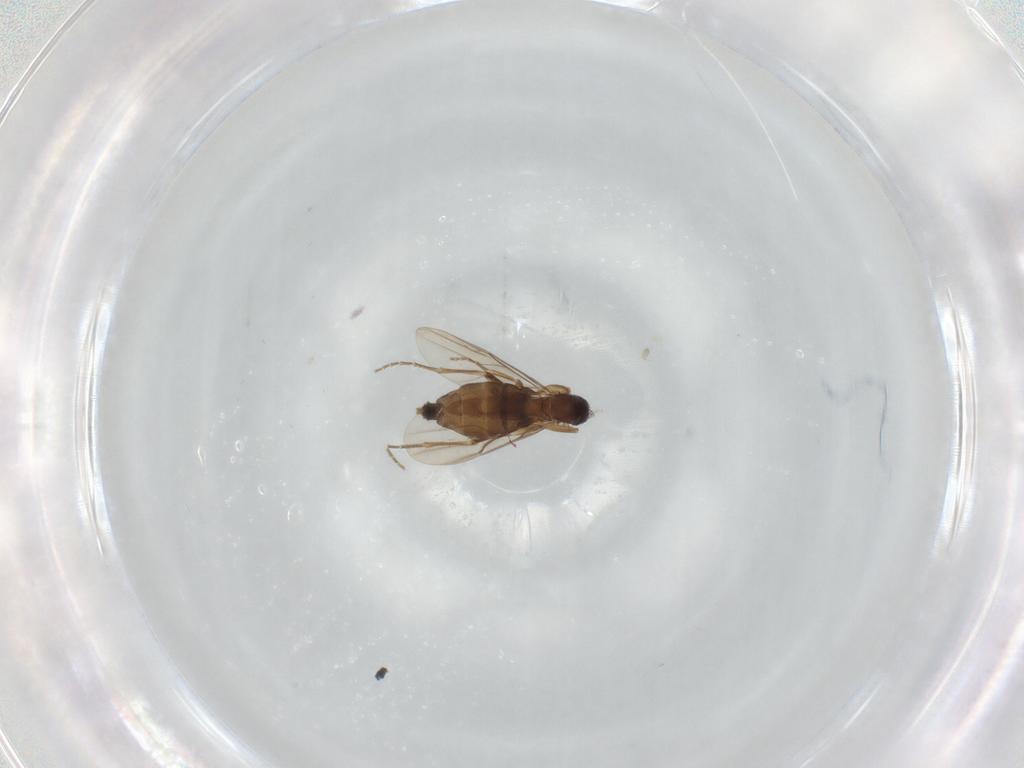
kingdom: Animalia
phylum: Arthropoda
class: Insecta
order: Diptera
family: Phoridae
